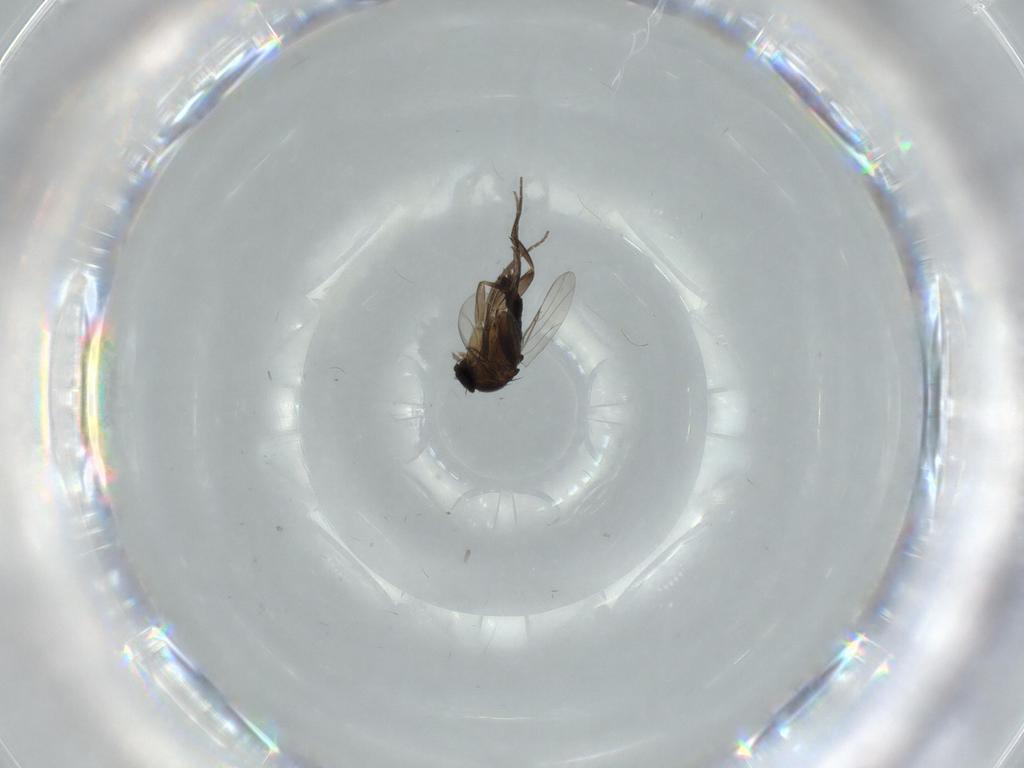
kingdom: Animalia
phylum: Arthropoda
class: Insecta
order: Diptera
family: Phoridae
